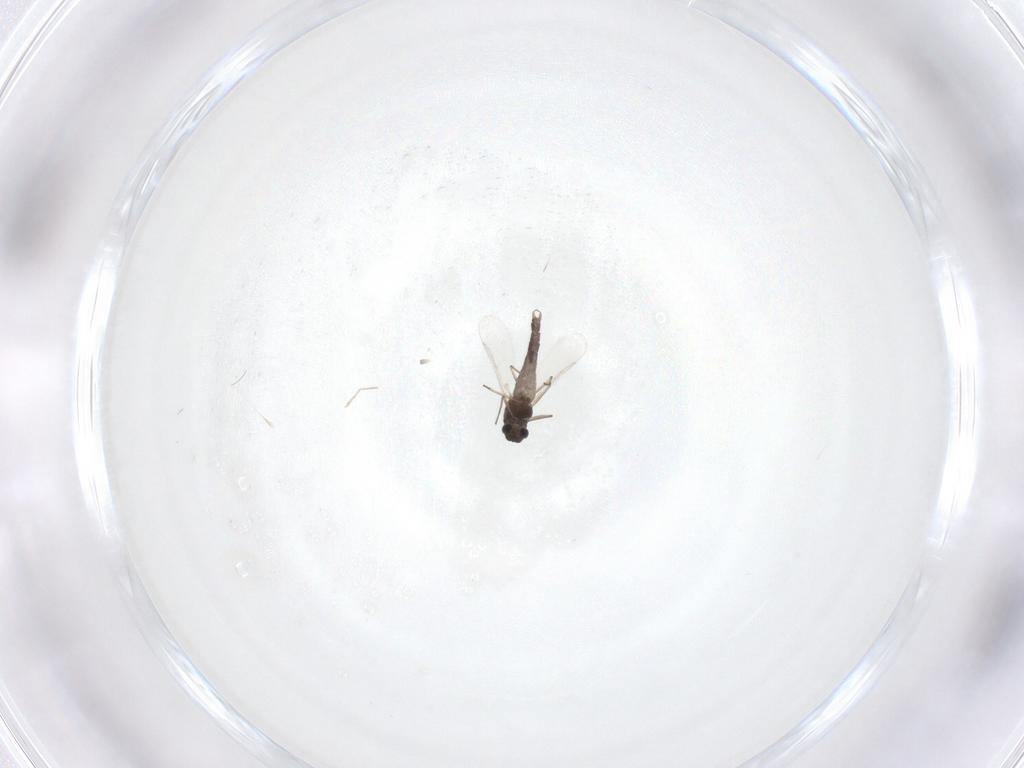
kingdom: Animalia
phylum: Arthropoda
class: Insecta
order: Diptera
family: Chironomidae
